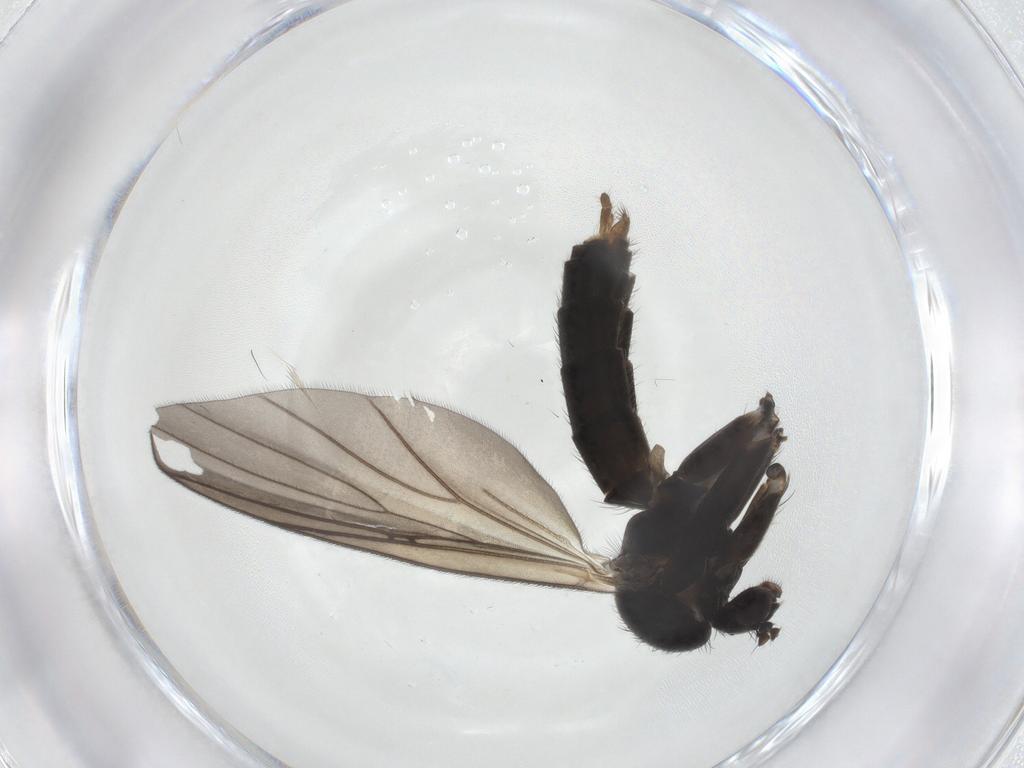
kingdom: Animalia
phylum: Arthropoda
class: Insecta
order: Diptera
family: Mycetophilidae
